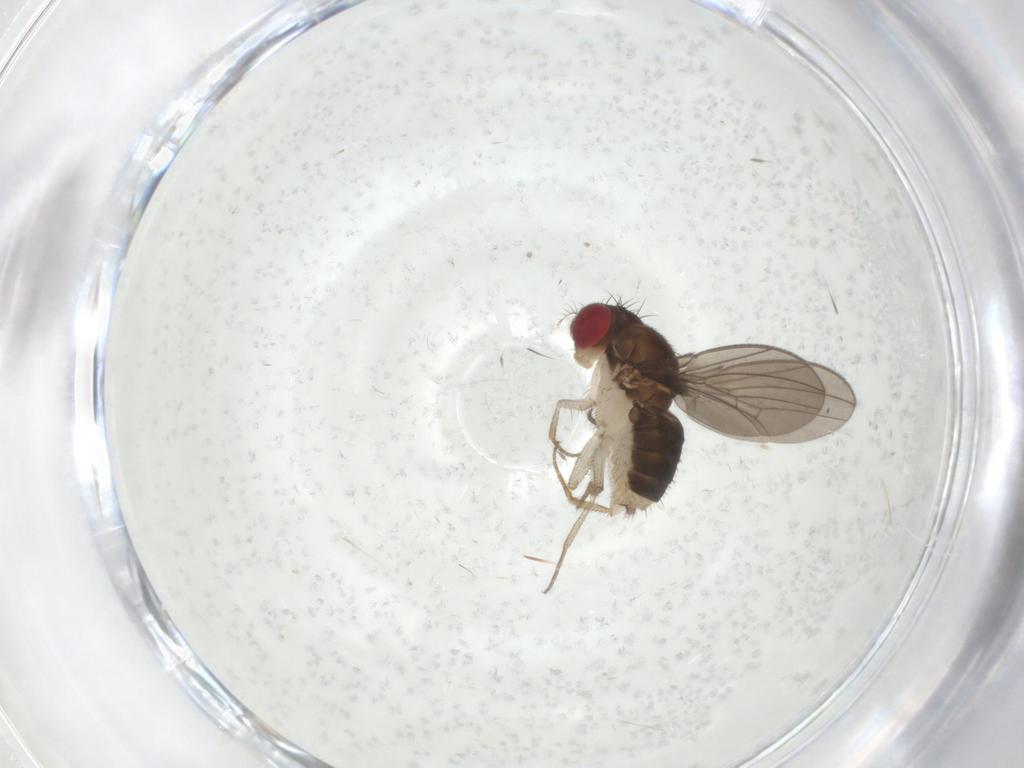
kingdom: Animalia
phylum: Arthropoda
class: Insecta
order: Diptera
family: Drosophilidae
